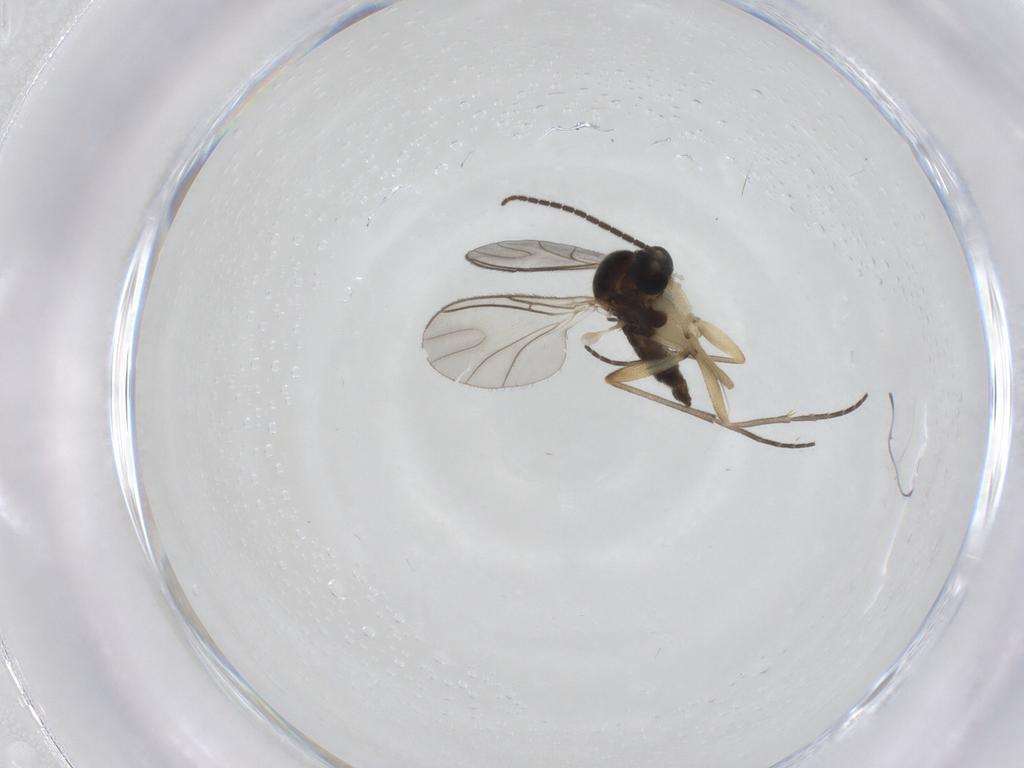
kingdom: Animalia
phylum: Arthropoda
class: Insecta
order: Diptera
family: Sciaridae
